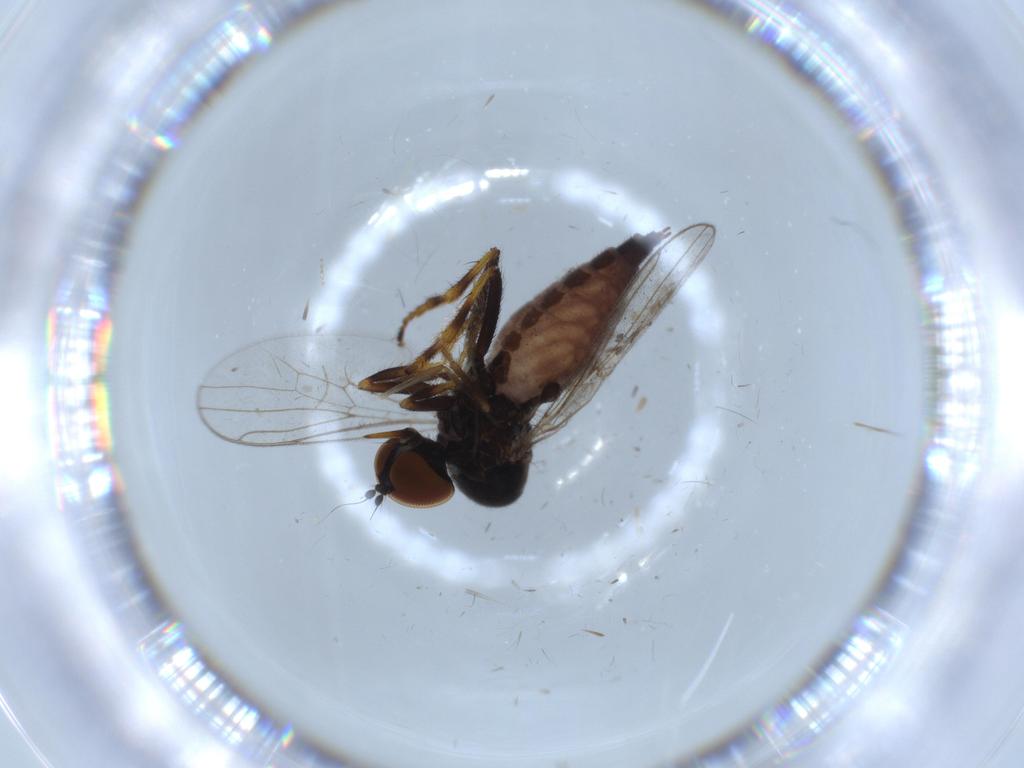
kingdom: Animalia
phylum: Arthropoda
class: Insecta
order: Diptera
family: Hybotidae
